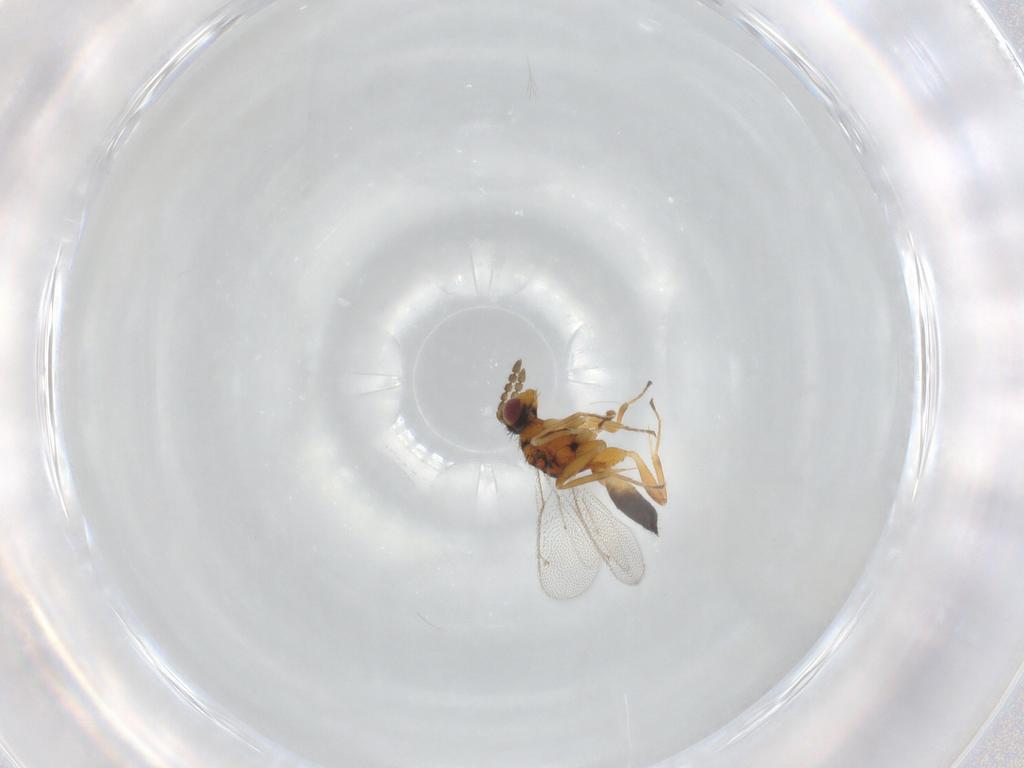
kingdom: Animalia
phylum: Arthropoda
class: Insecta
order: Hymenoptera
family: Eulophidae
